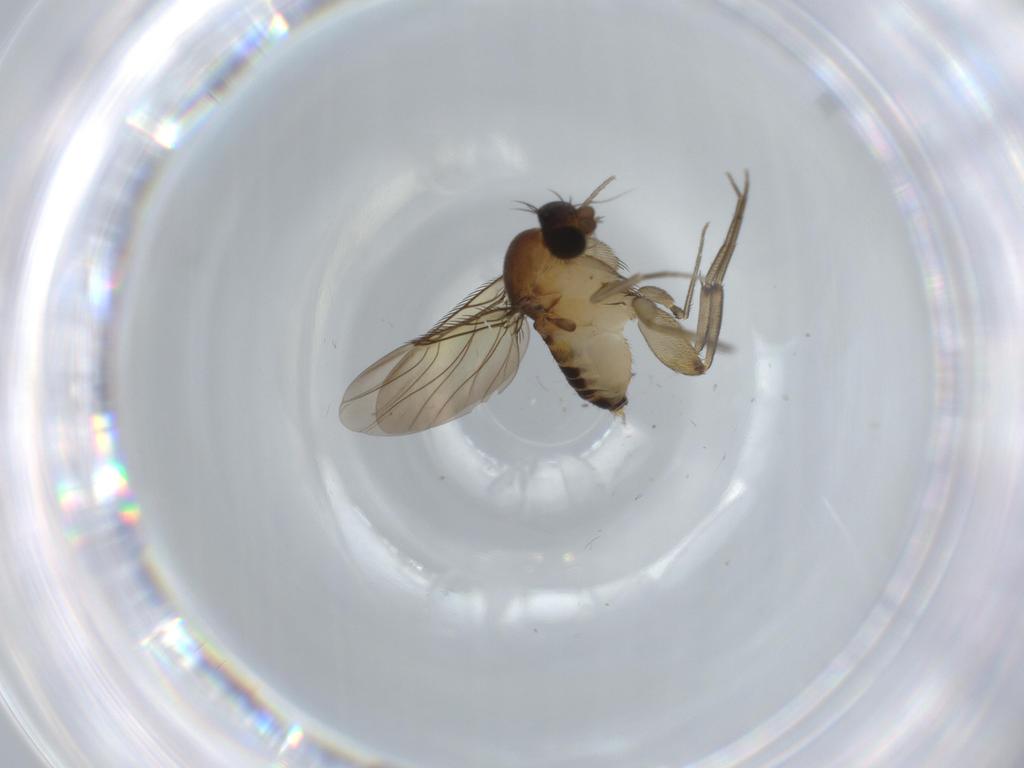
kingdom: Animalia
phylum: Arthropoda
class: Insecta
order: Diptera
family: Phoridae
